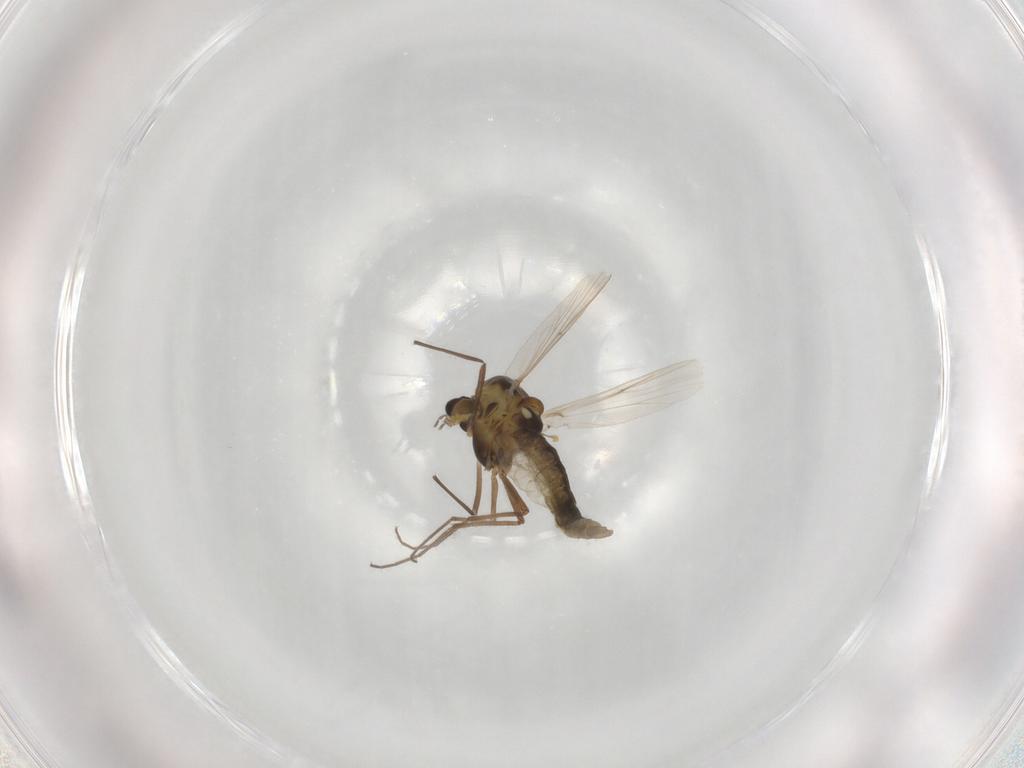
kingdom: Animalia
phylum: Arthropoda
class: Insecta
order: Diptera
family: Chironomidae
